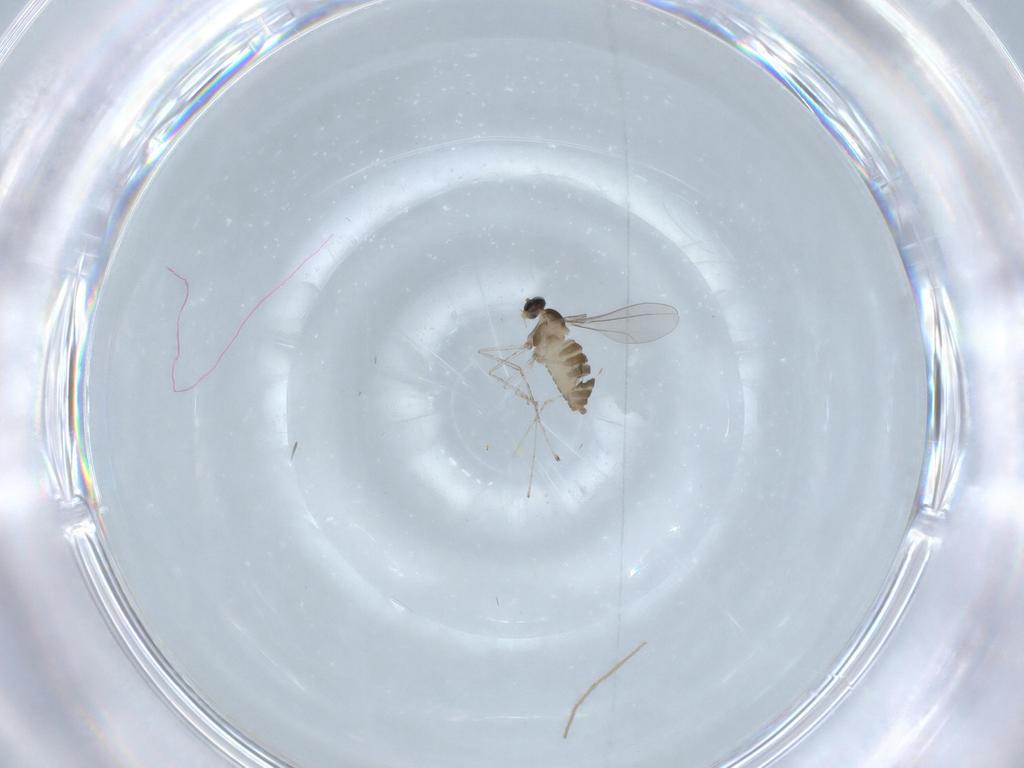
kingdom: Animalia
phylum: Arthropoda
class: Insecta
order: Diptera
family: Cecidomyiidae
